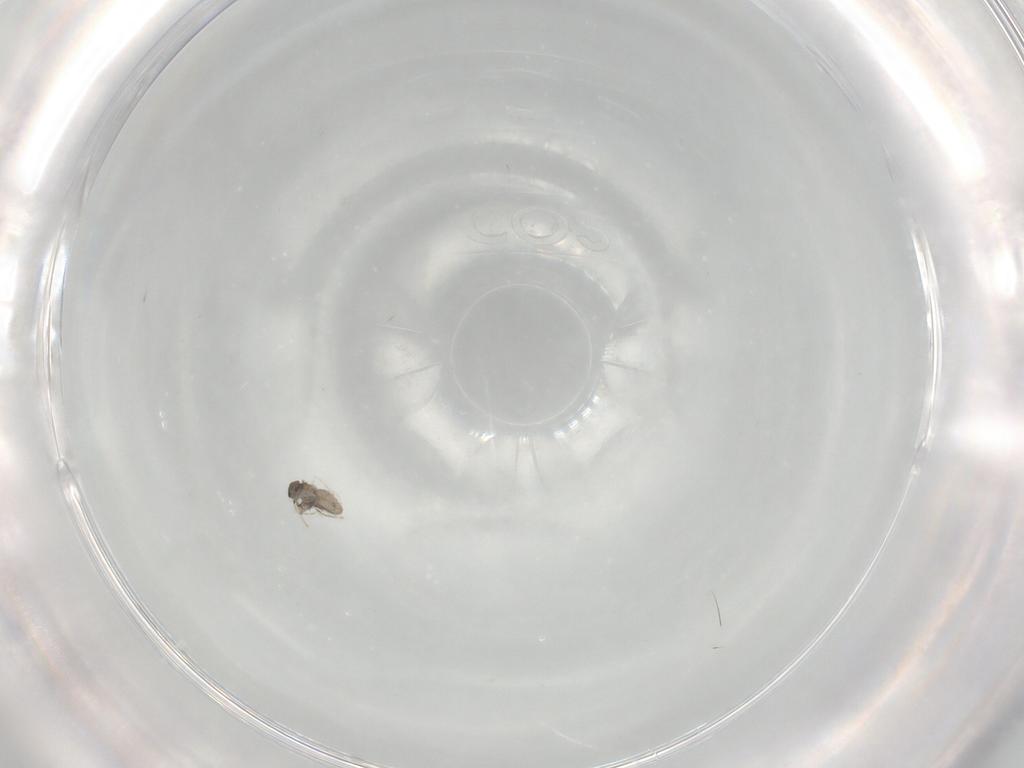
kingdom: Animalia
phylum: Arthropoda
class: Insecta
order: Diptera
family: Cecidomyiidae
